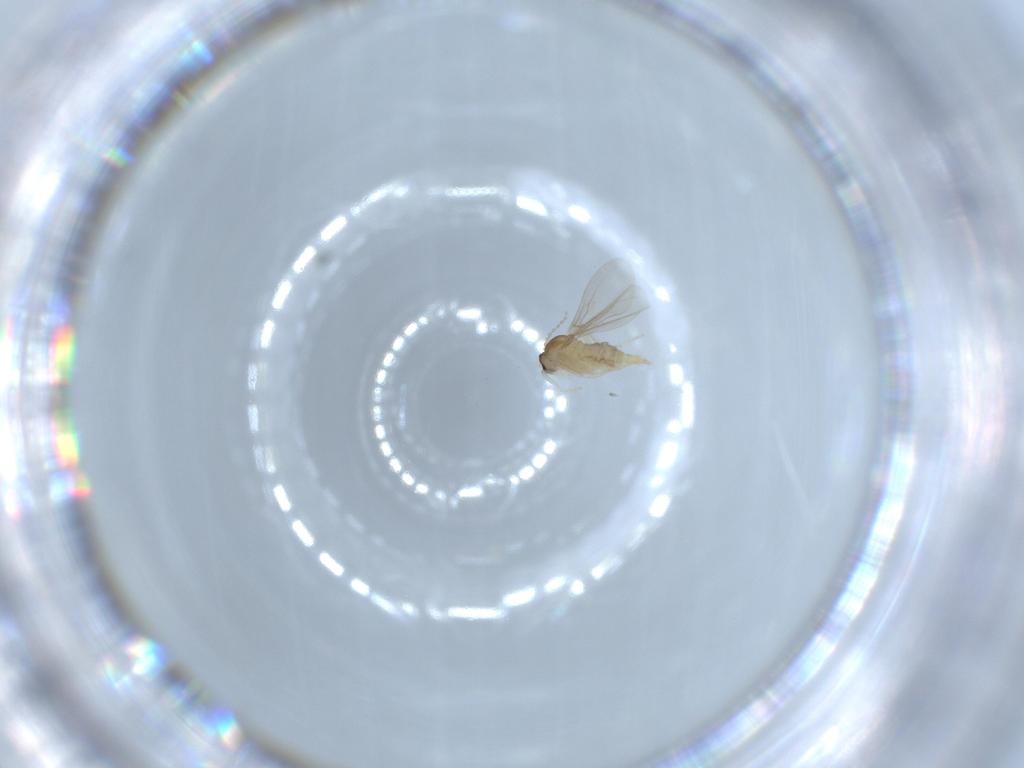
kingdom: Animalia
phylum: Arthropoda
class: Insecta
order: Diptera
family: Cecidomyiidae
